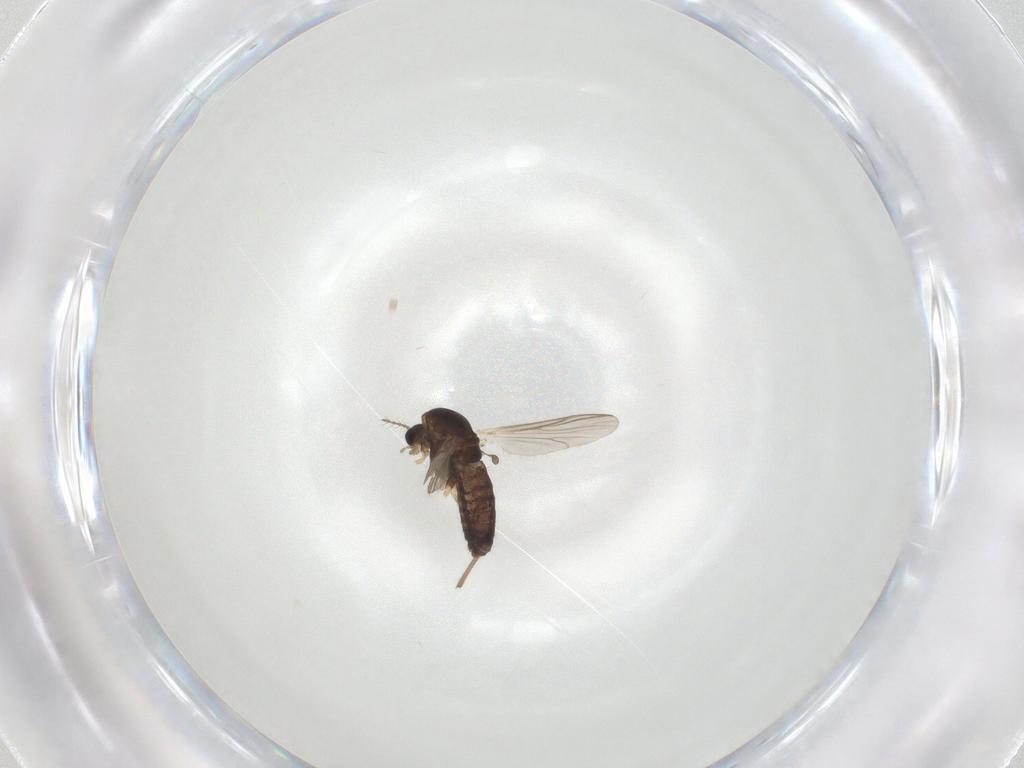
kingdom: Animalia
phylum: Arthropoda
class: Insecta
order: Diptera
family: Chironomidae
